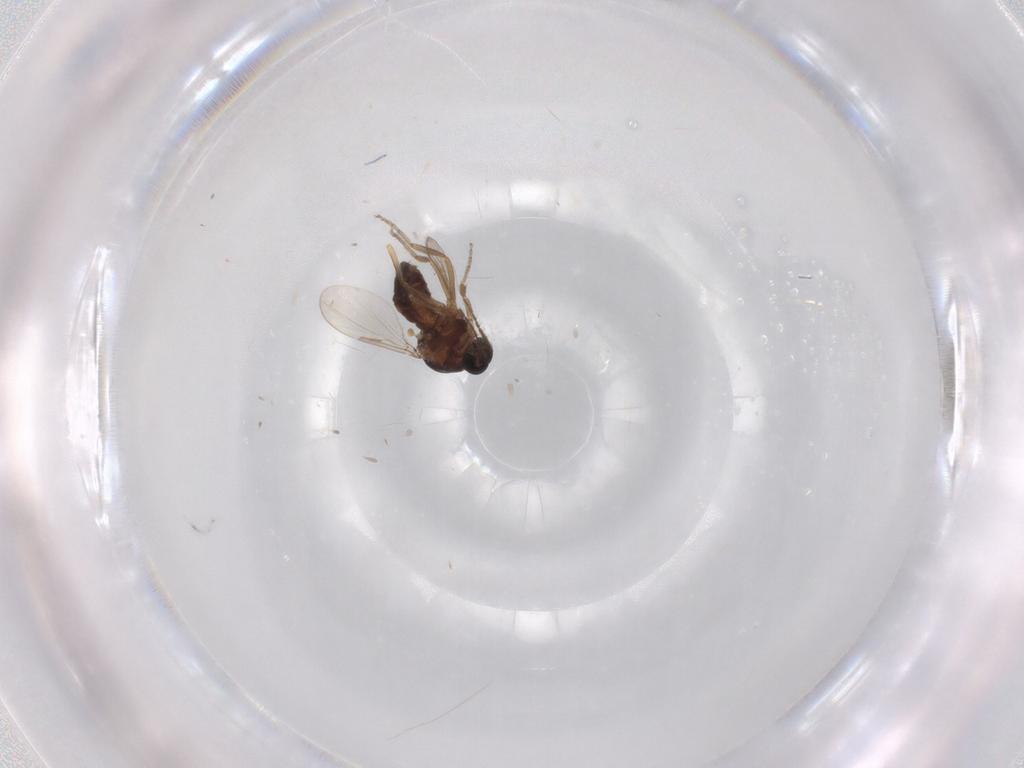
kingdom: Animalia
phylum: Arthropoda
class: Insecta
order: Diptera
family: Ceratopogonidae
